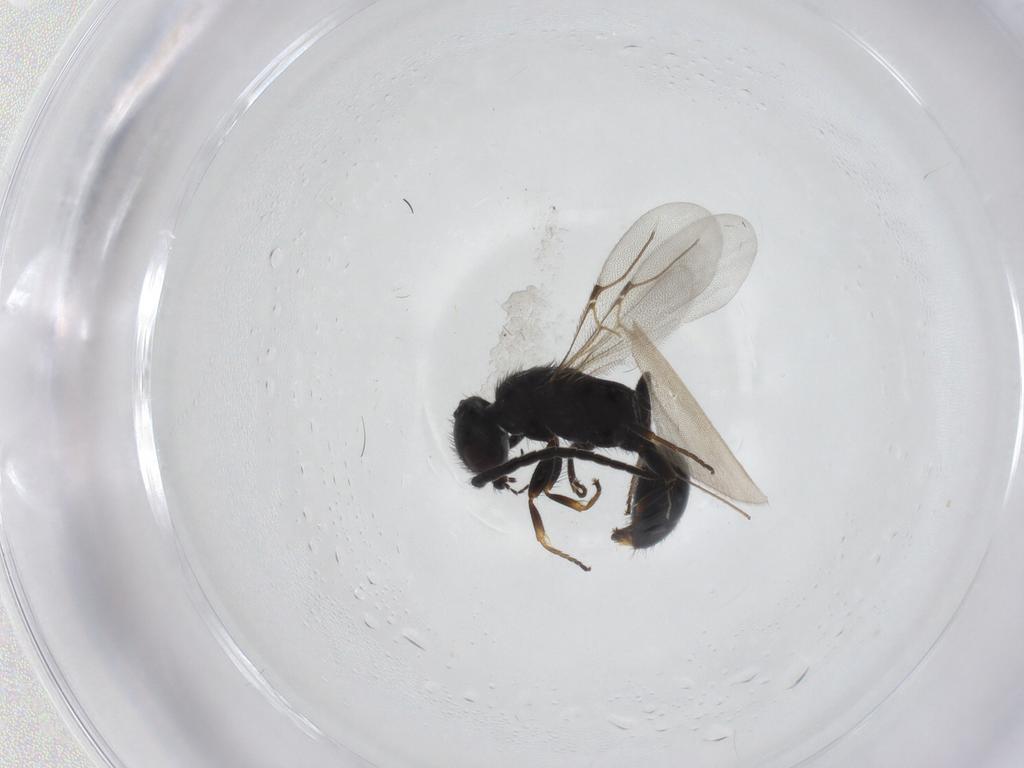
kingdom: Animalia
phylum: Arthropoda
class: Insecta
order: Hymenoptera
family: Bethylidae
